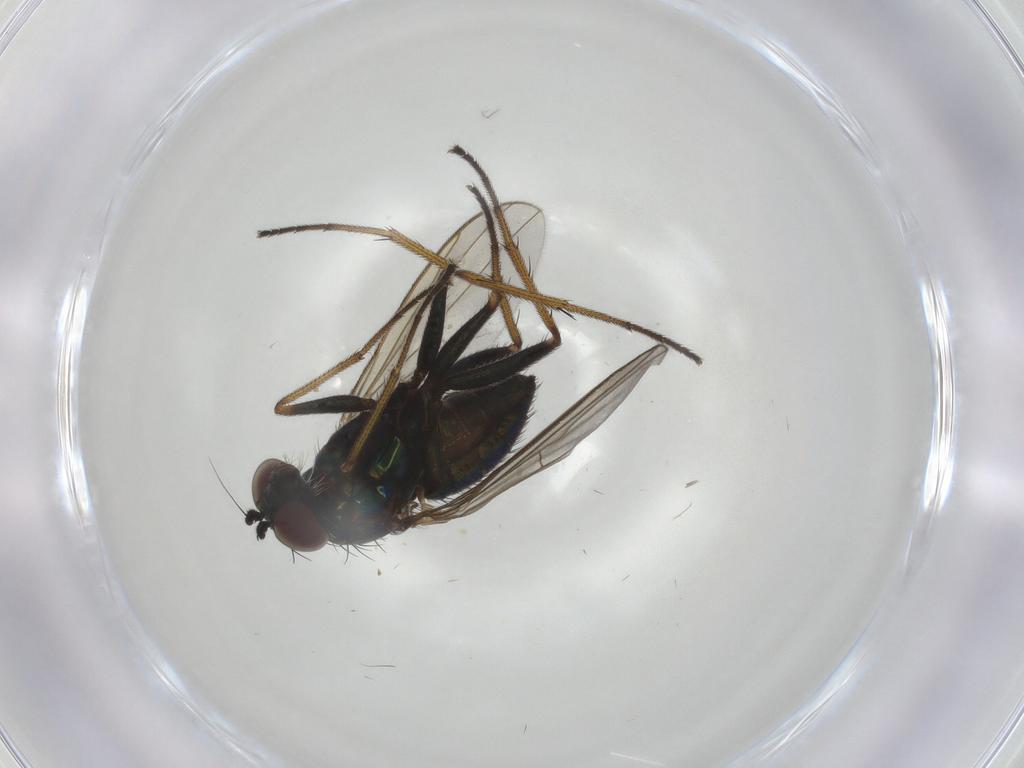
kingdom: Animalia
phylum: Arthropoda
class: Insecta
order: Diptera
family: Dolichopodidae
